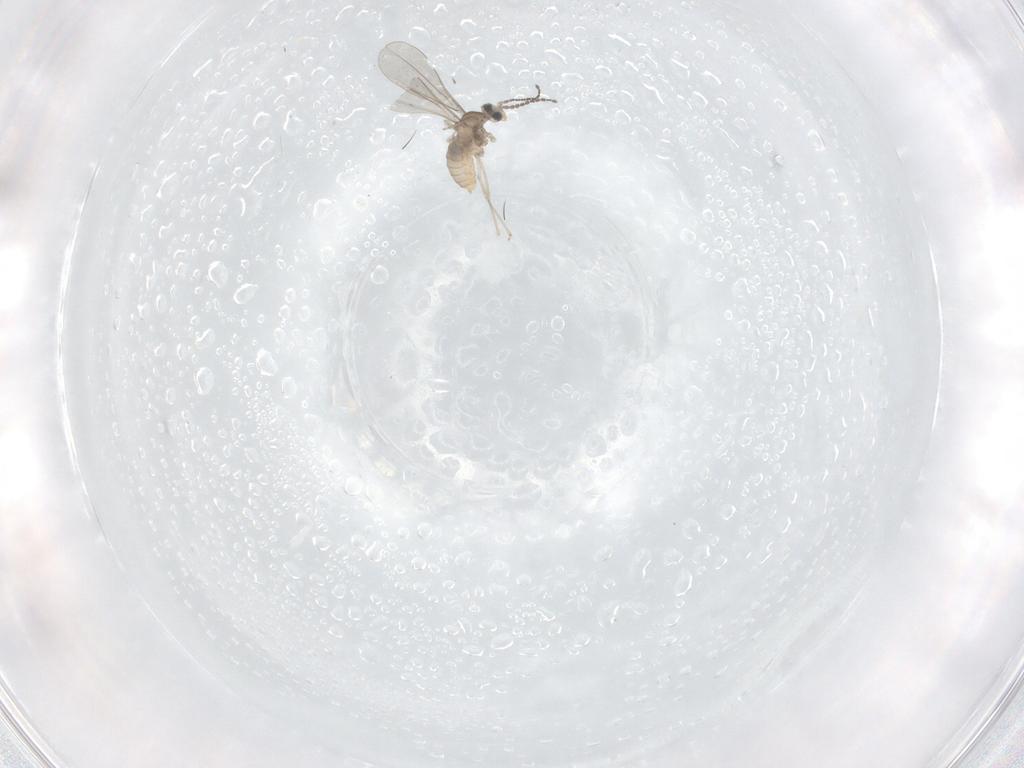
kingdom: Animalia
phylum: Arthropoda
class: Insecta
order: Diptera
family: Cecidomyiidae
